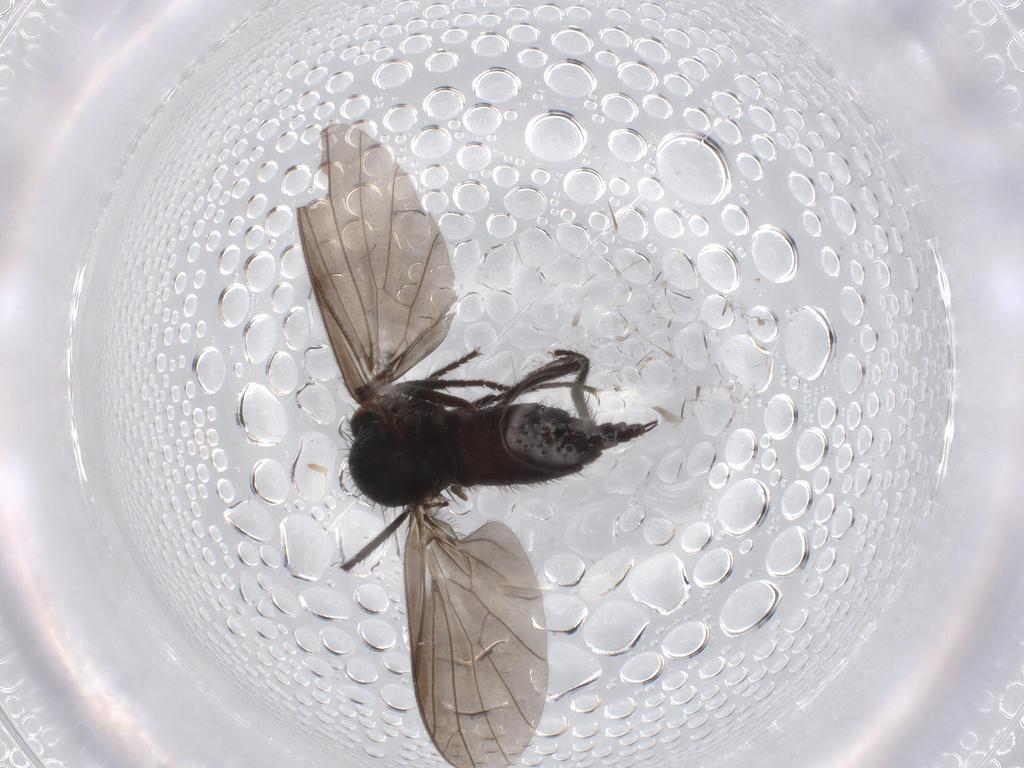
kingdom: Animalia
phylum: Arthropoda
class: Insecta
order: Diptera
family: Empididae
